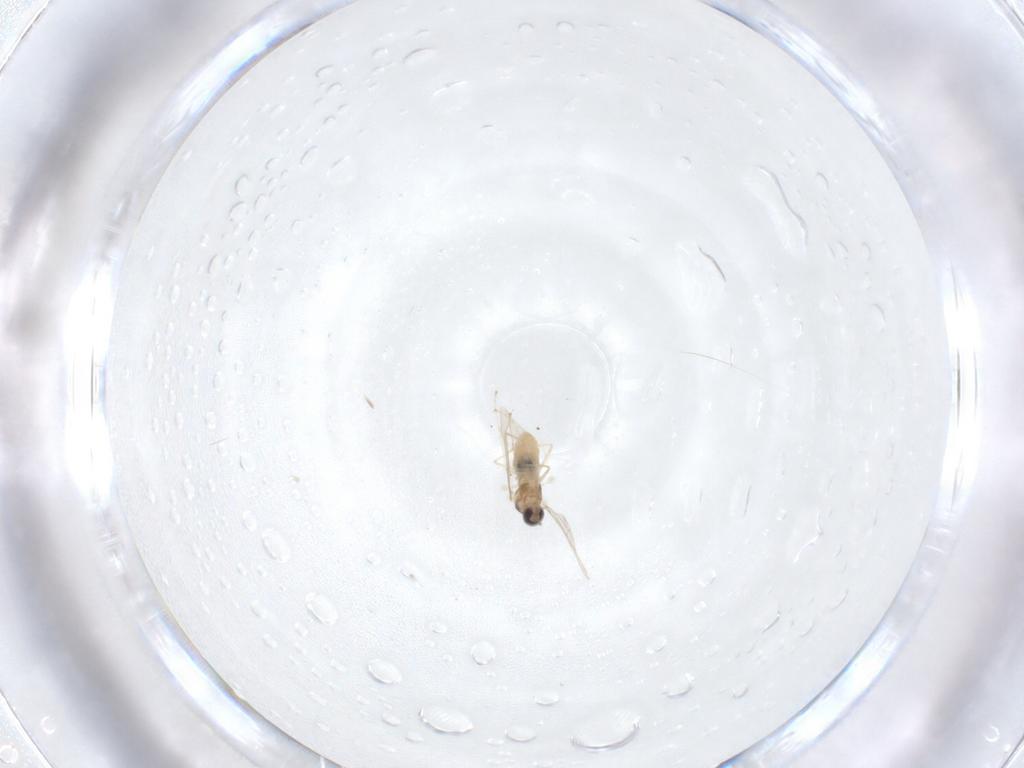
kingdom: Animalia
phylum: Arthropoda
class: Insecta
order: Diptera
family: Cecidomyiidae
